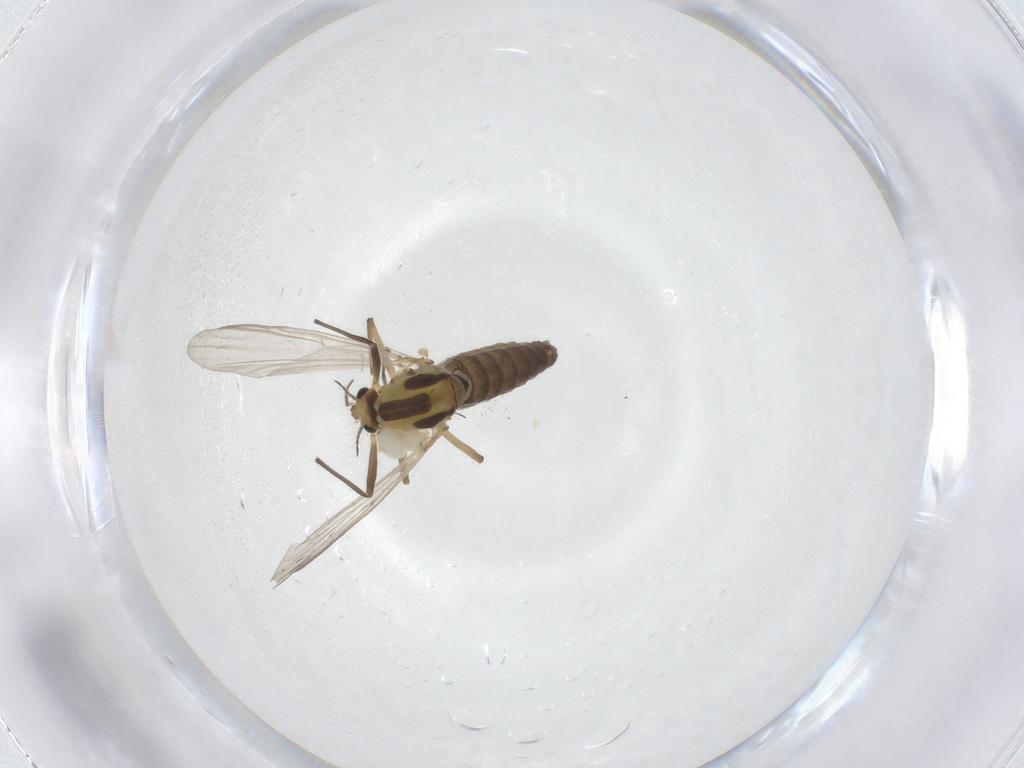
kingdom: Animalia
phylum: Arthropoda
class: Insecta
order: Diptera
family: Chironomidae
